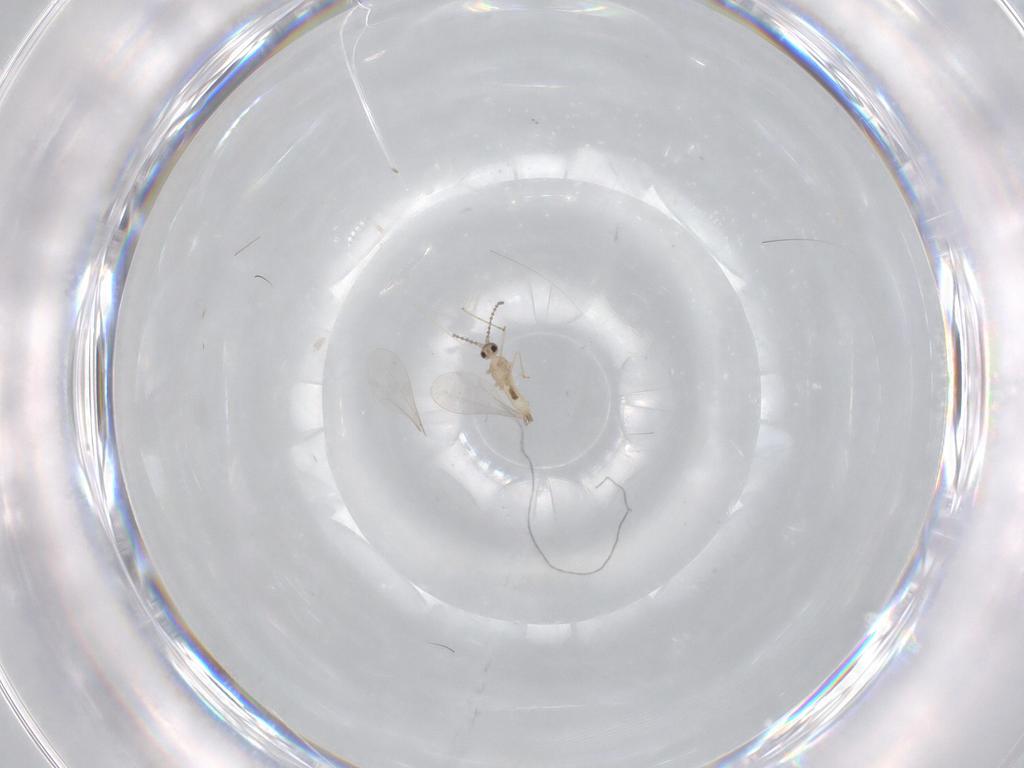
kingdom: Animalia
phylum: Arthropoda
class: Insecta
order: Diptera
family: Cecidomyiidae
